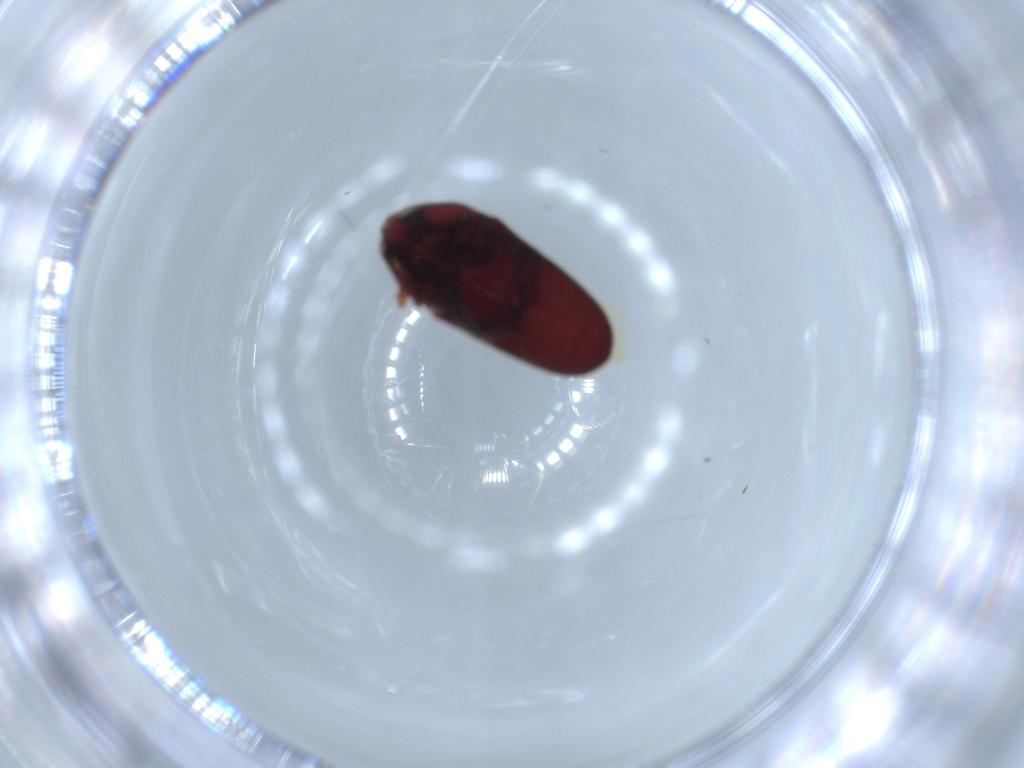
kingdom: Animalia
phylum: Arthropoda
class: Insecta
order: Coleoptera
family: Throscidae
